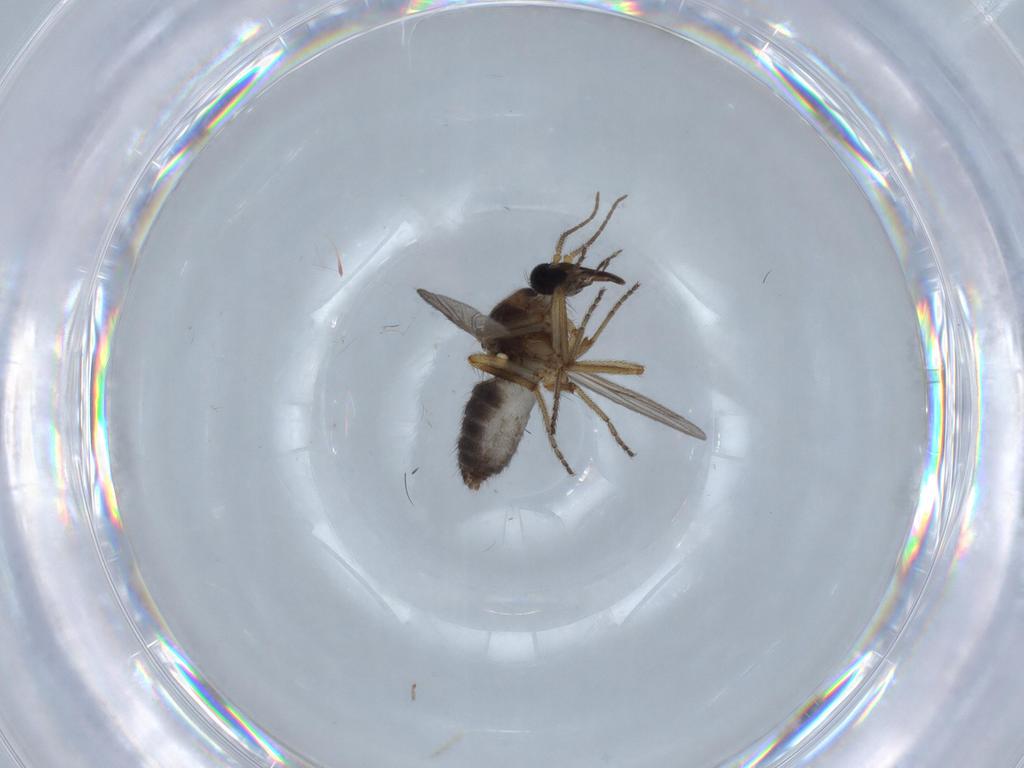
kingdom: Animalia
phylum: Arthropoda
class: Insecta
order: Diptera
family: Ceratopogonidae
